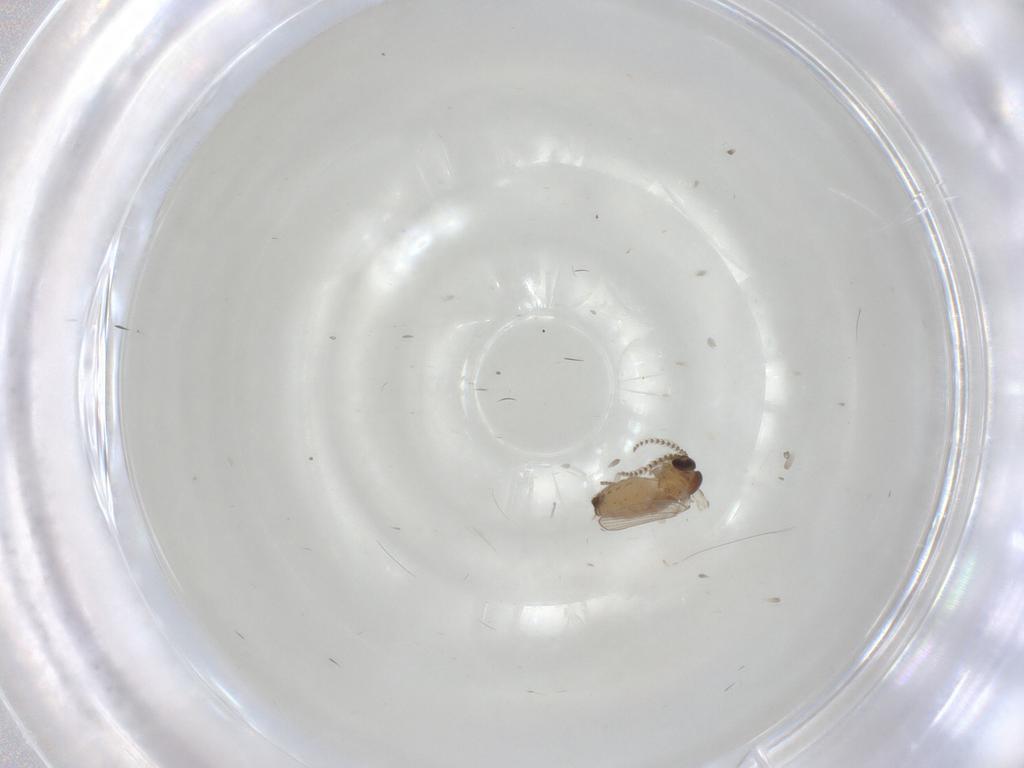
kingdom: Animalia
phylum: Arthropoda
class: Insecta
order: Diptera
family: Psychodidae
